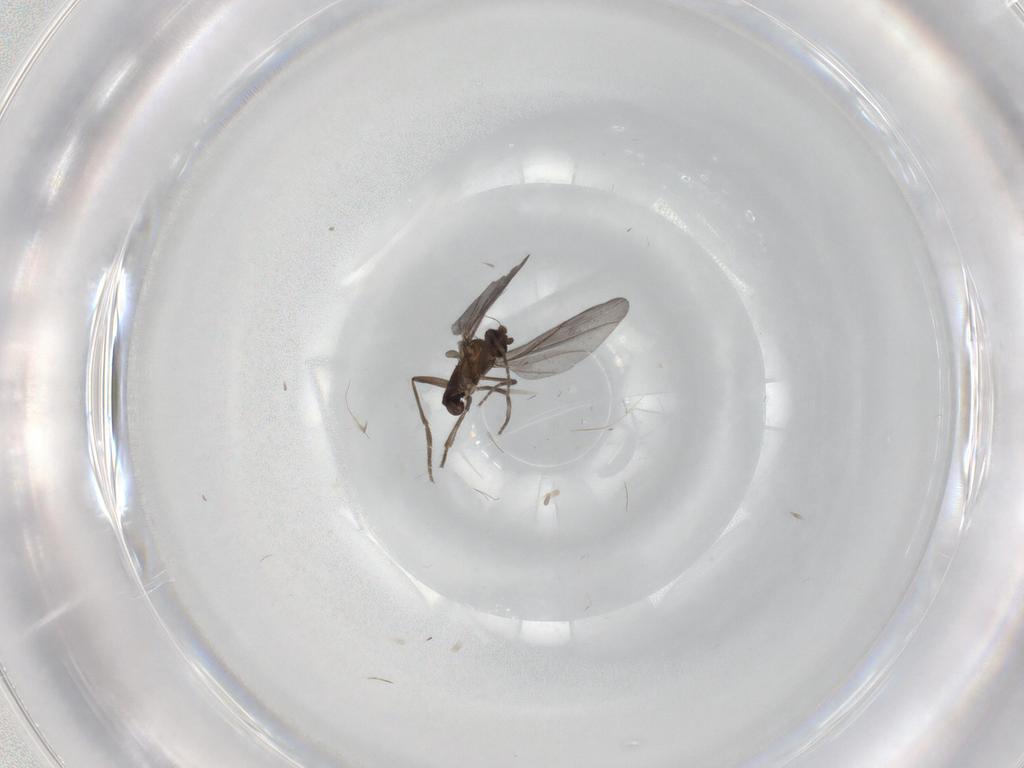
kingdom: Animalia
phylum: Arthropoda
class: Insecta
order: Diptera
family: Phoridae
